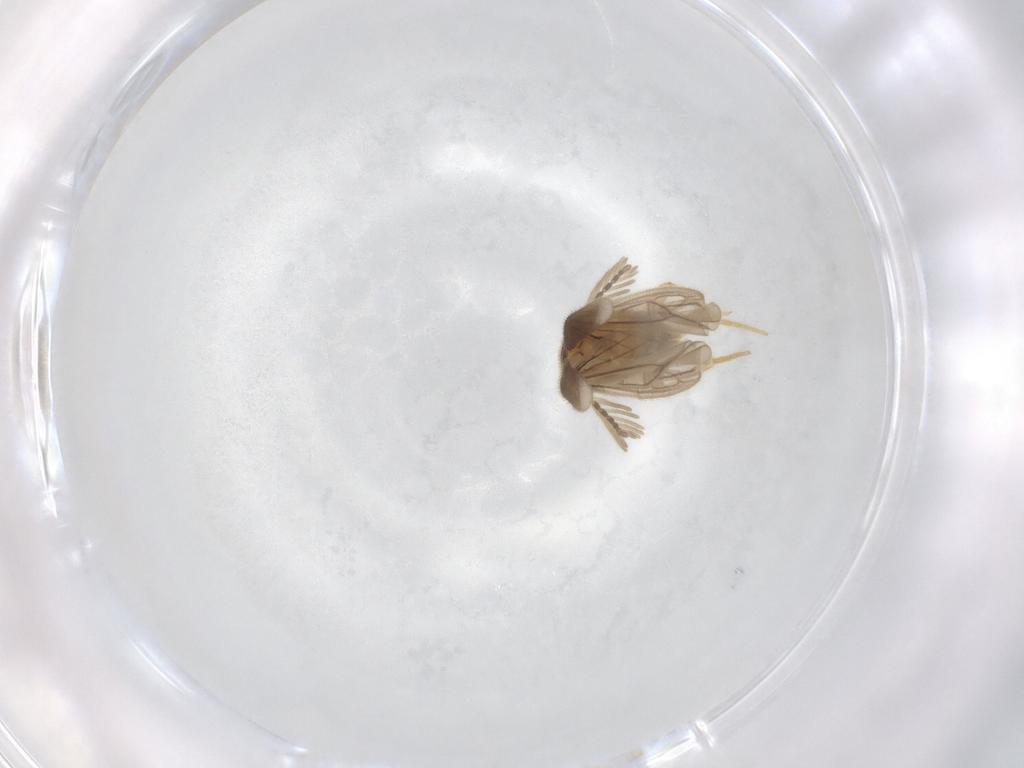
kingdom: Animalia
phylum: Arthropoda
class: Insecta
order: Coleoptera
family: Phengodidae
